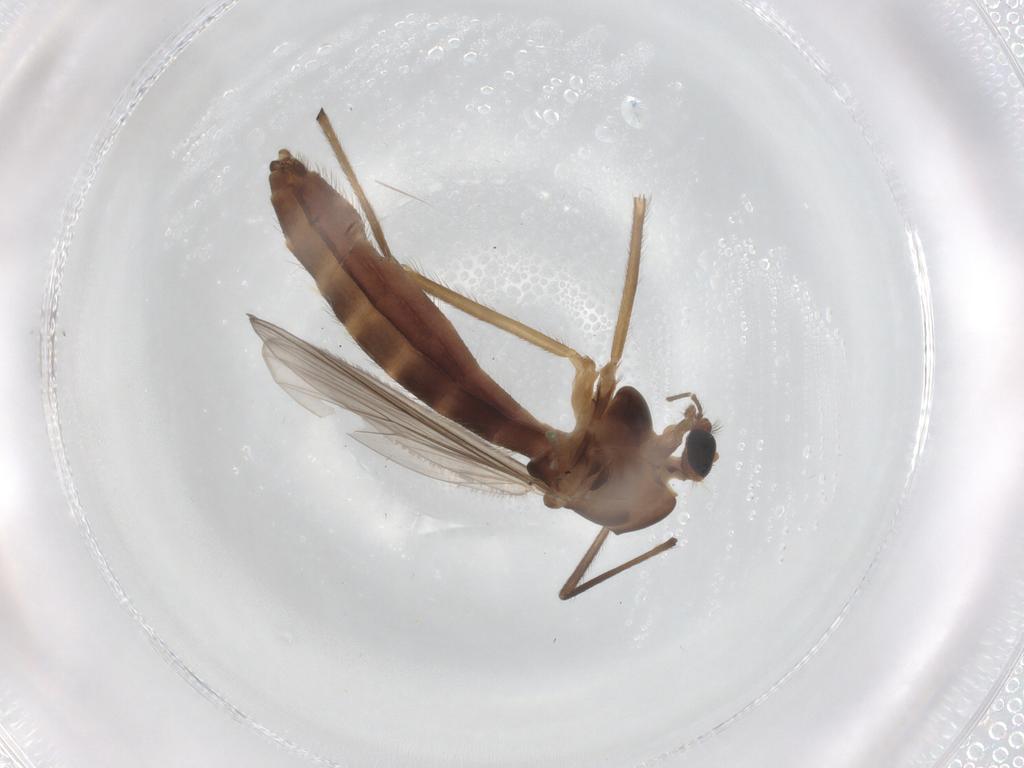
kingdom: Animalia
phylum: Arthropoda
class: Insecta
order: Diptera
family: Chironomidae
